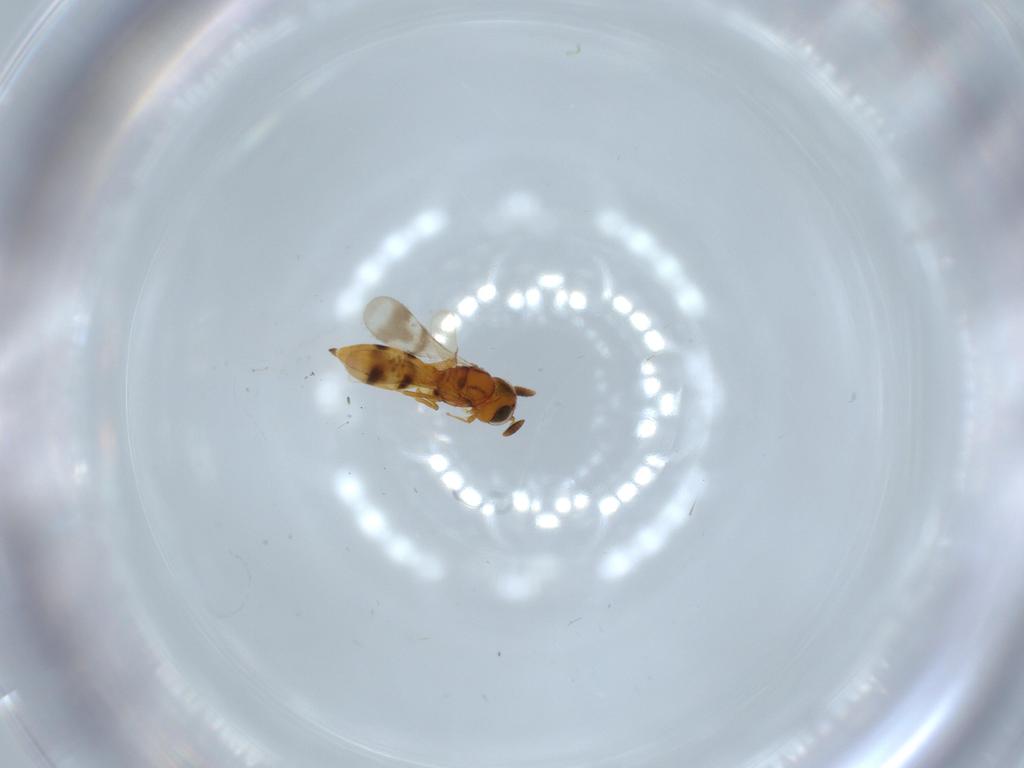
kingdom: Animalia
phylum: Arthropoda
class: Insecta
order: Hymenoptera
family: Scelionidae
